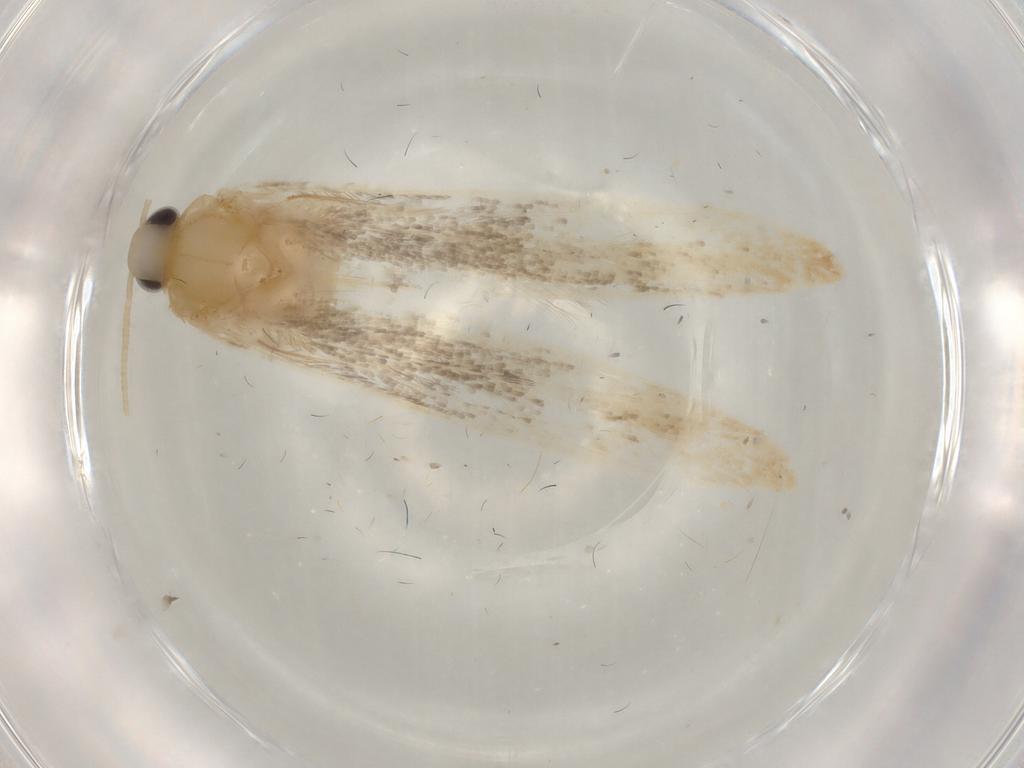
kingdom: Animalia
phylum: Arthropoda
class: Insecta
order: Lepidoptera
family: Coleophoridae
